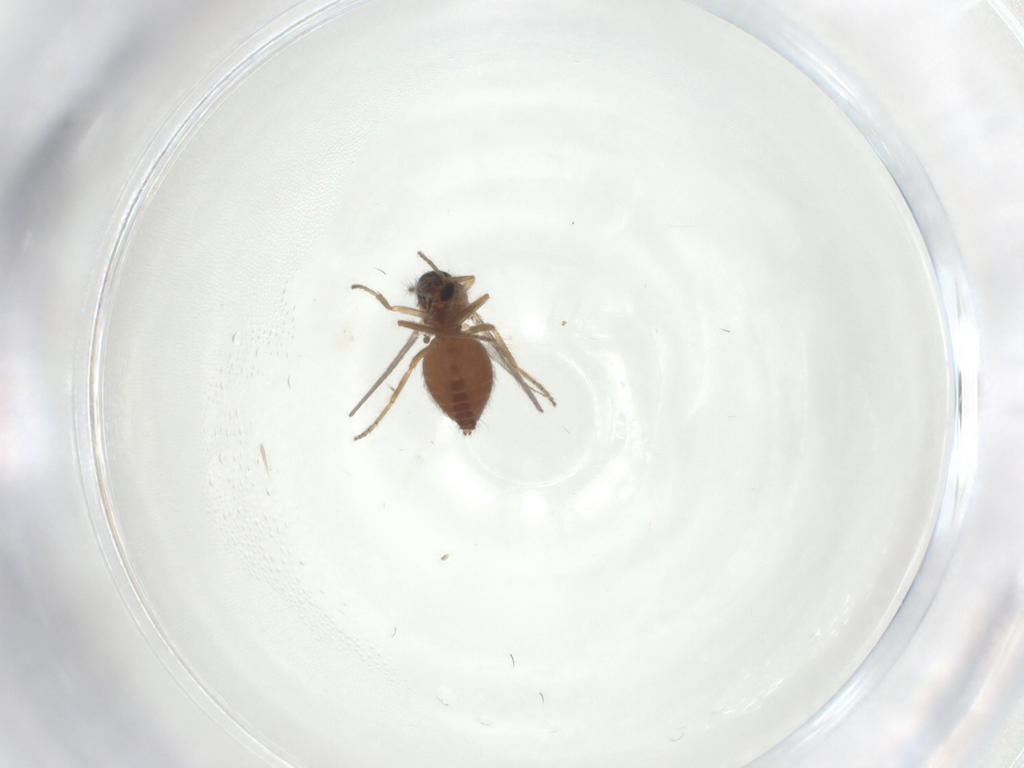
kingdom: Animalia
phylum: Arthropoda
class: Insecta
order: Diptera
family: Ceratopogonidae
